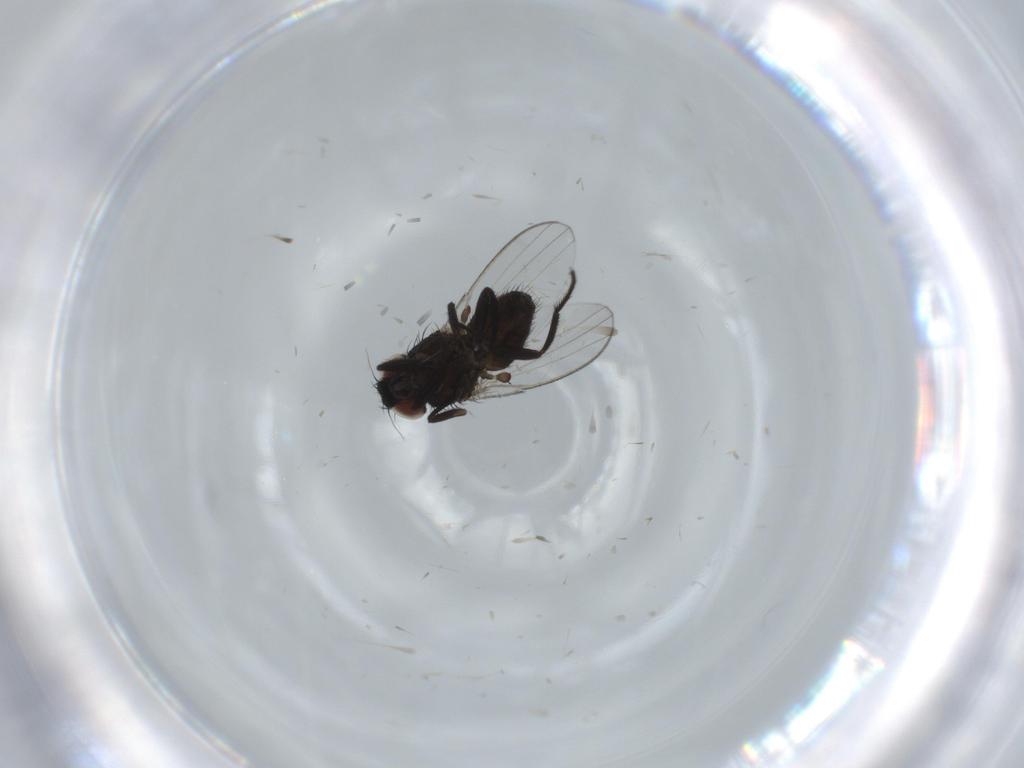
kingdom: Animalia
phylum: Arthropoda
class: Insecta
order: Diptera
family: Milichiidae
